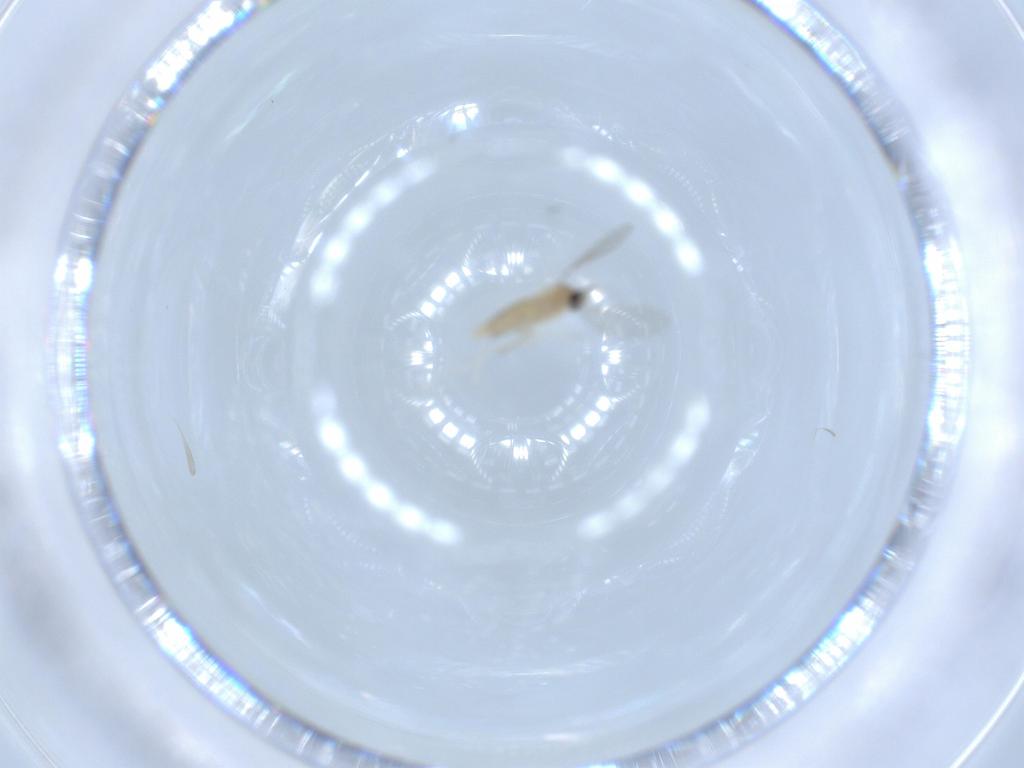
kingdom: Animalia
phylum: Arthropoda
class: Insecta
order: Diptera
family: Cecidomyiidae
